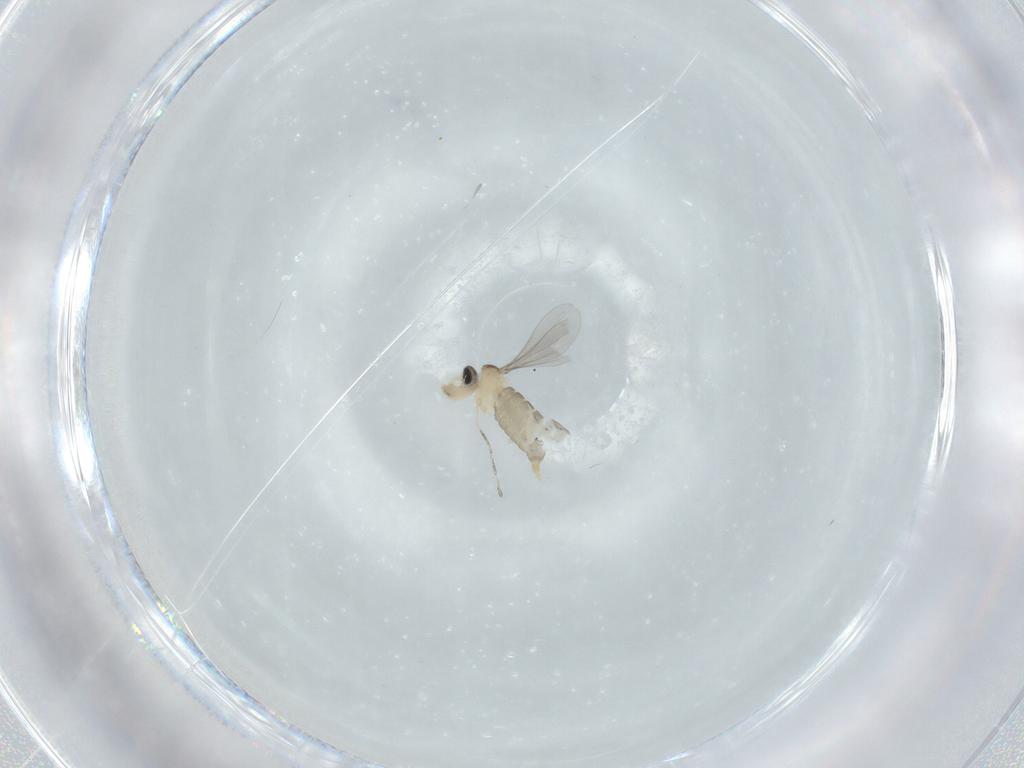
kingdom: Animalia
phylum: Arthropoda
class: Insecta
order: Diptera
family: Cecidomyiidae
